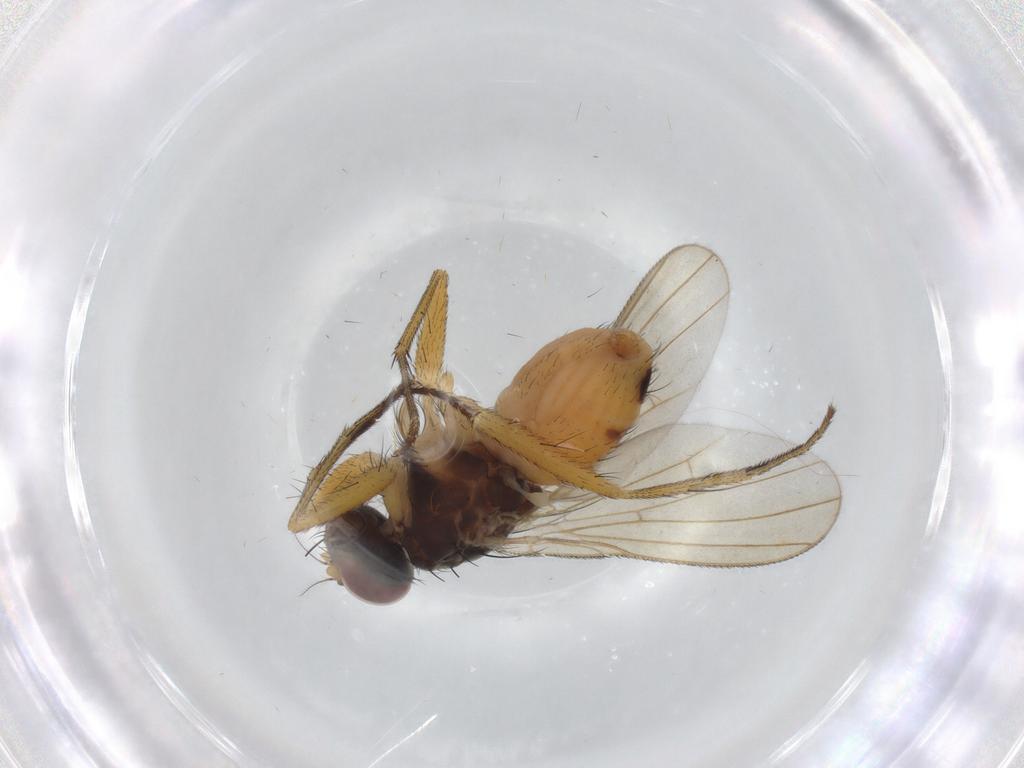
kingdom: Animalia
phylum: Arthropoda
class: Insecta
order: Diptera
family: Muscidae
